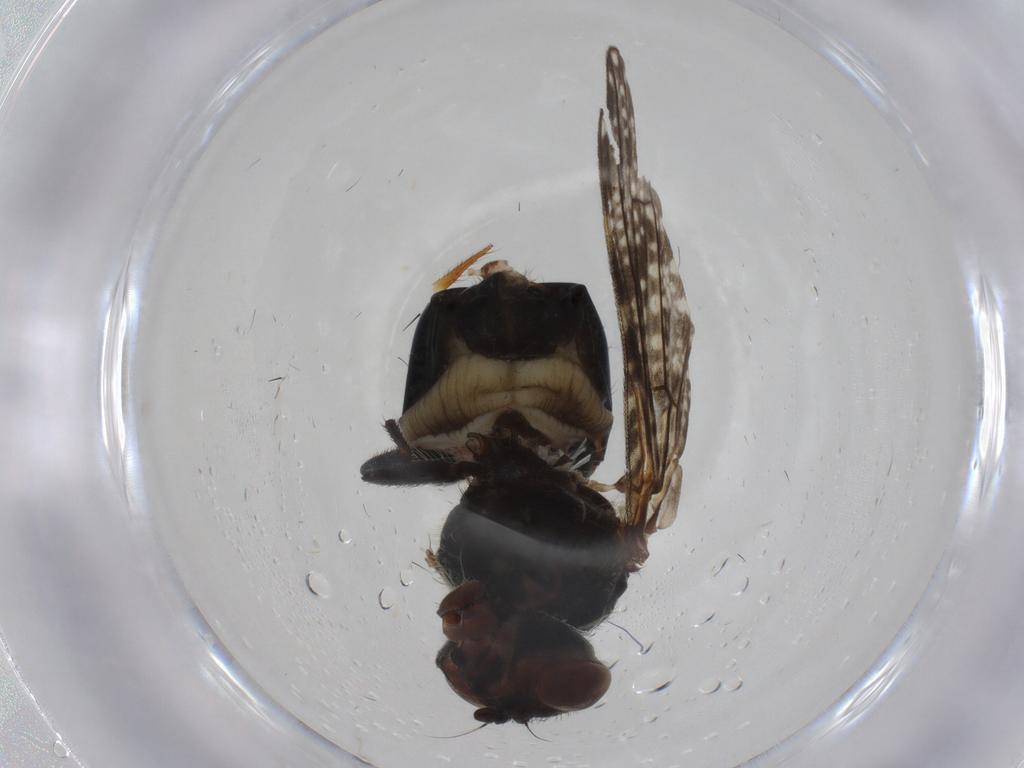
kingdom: Animalia
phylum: Arthropoda
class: Insecta
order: Diptera
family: Platystomatidae
